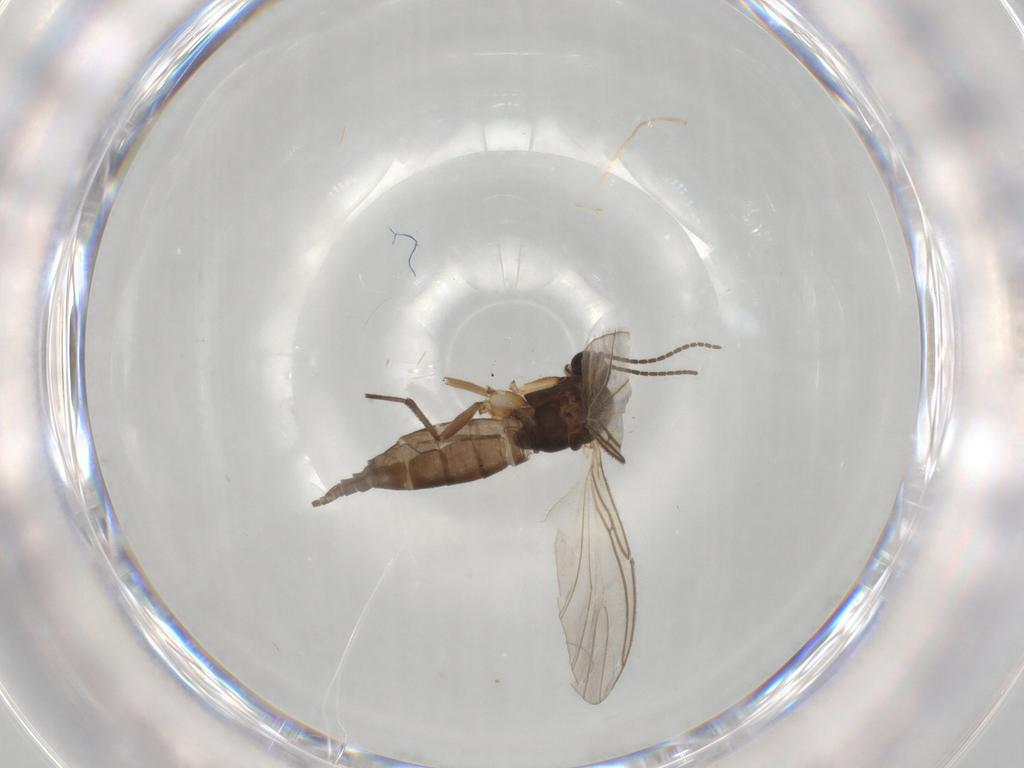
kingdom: Animalia
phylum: Arthropoda
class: Insecta
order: Diptera
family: Sciaridae
